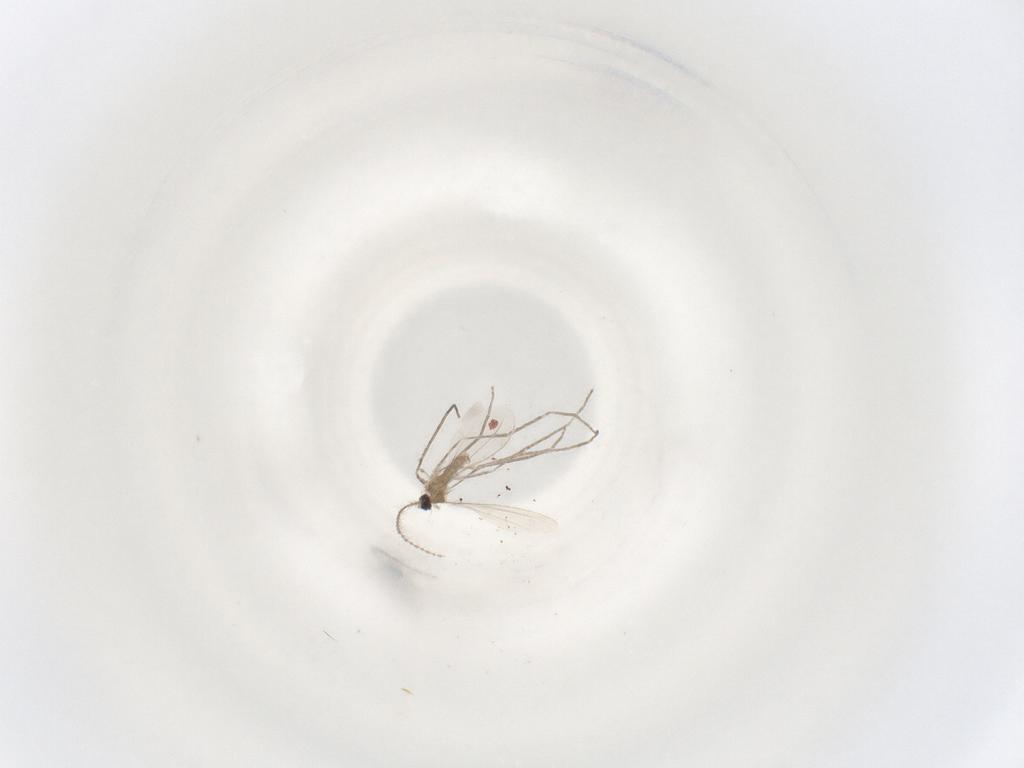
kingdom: Animalia
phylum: Arthropoda
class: Insecta
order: Diptera
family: Cecidomyiidae
